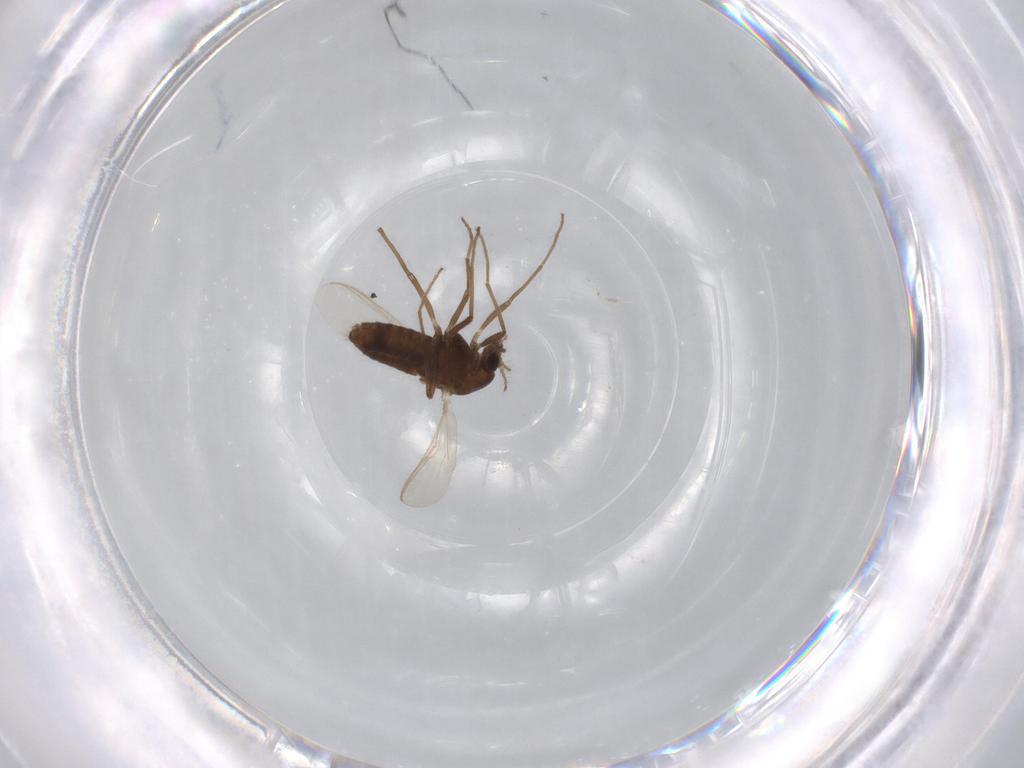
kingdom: Animalia
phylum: Arthropoda
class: Insecta
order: Diptera
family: Chironomidae
